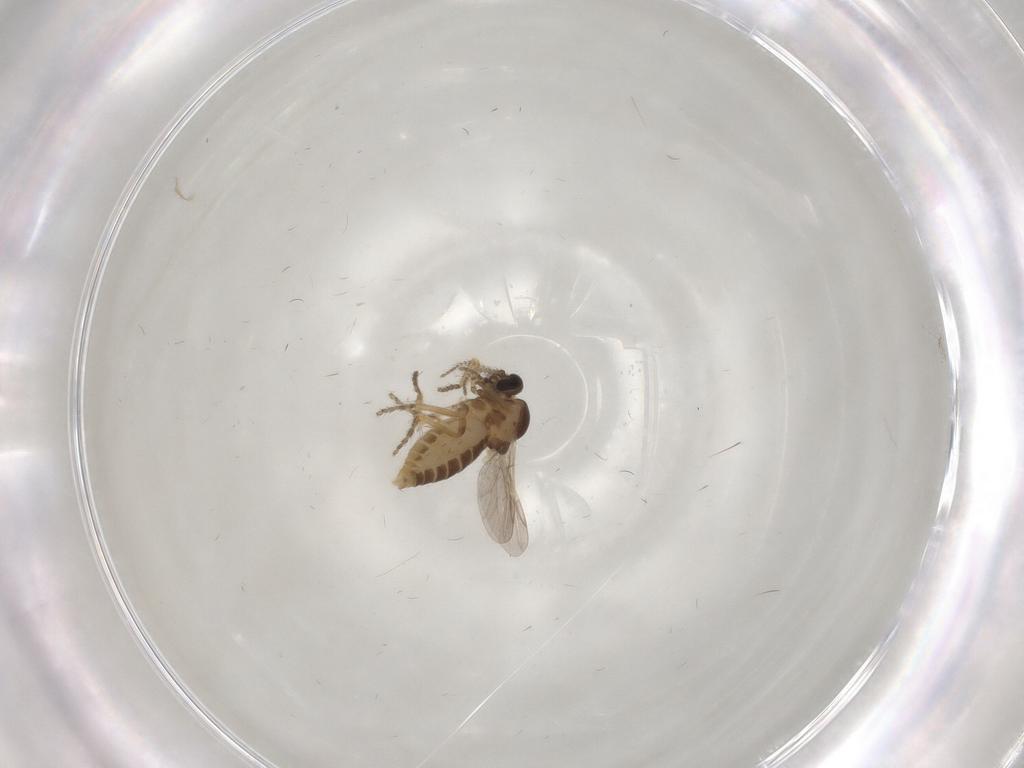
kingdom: Animalia
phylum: Arthropoda
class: Insecta
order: Diptera
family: Ceratopogonidae
